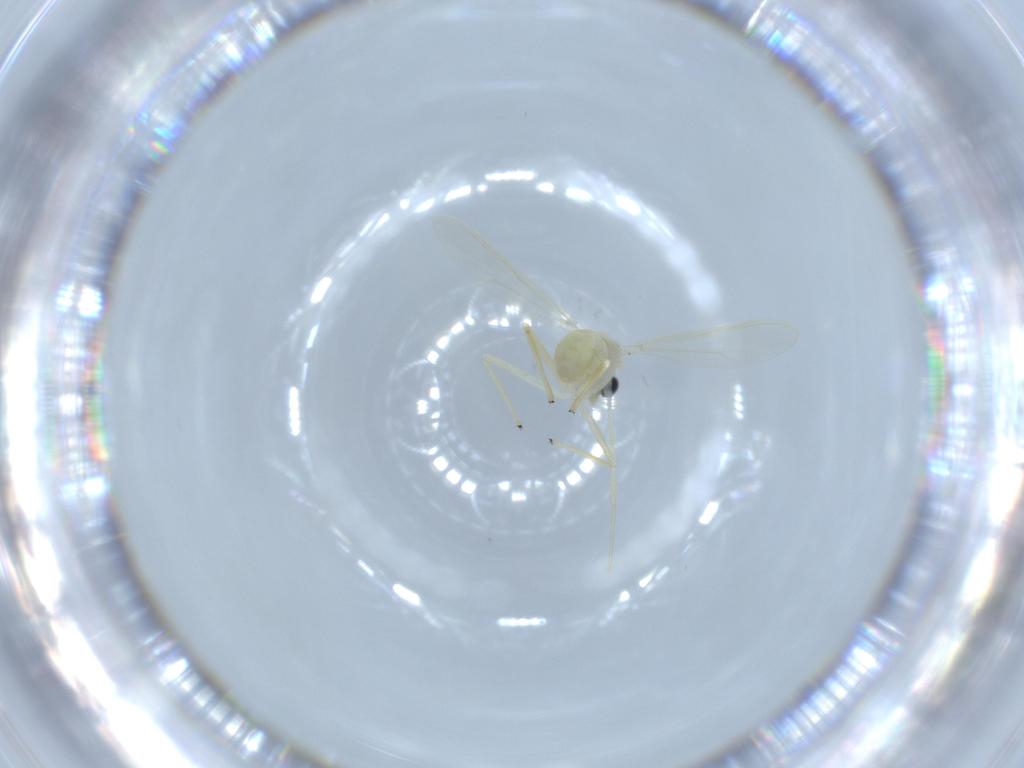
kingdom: Animalia
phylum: Arthropoda
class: Insecta
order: Diptera
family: Chironomidae
